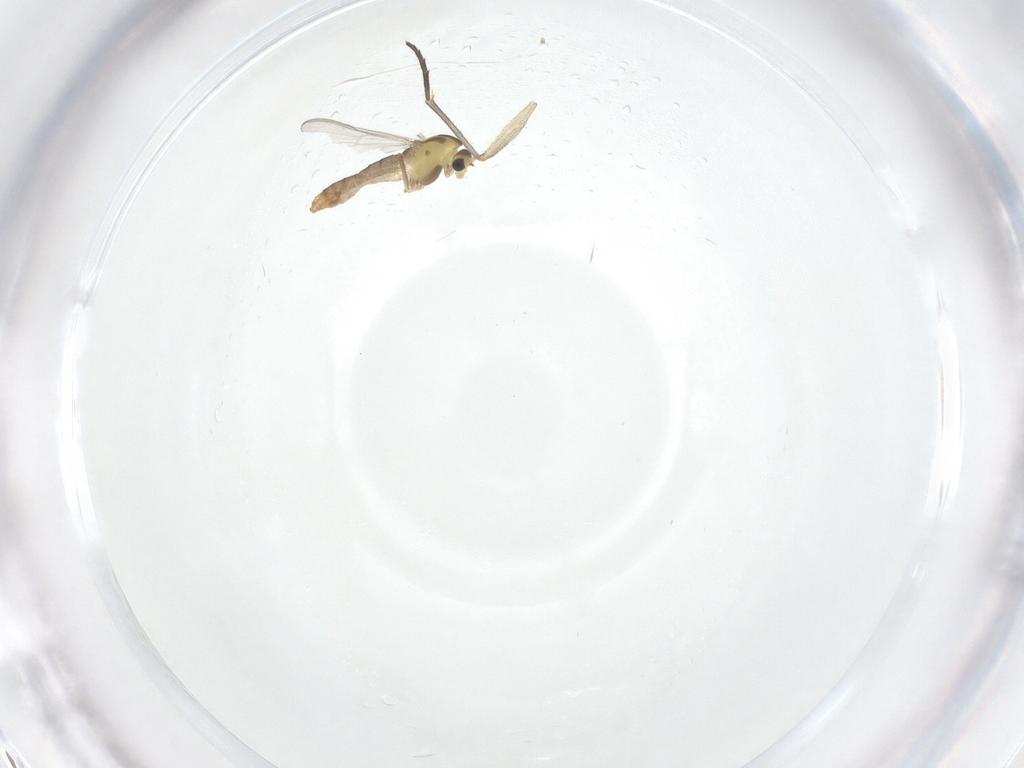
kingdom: Animalia
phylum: Arthropoda
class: Insecta
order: Diptera
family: Chironomidae
